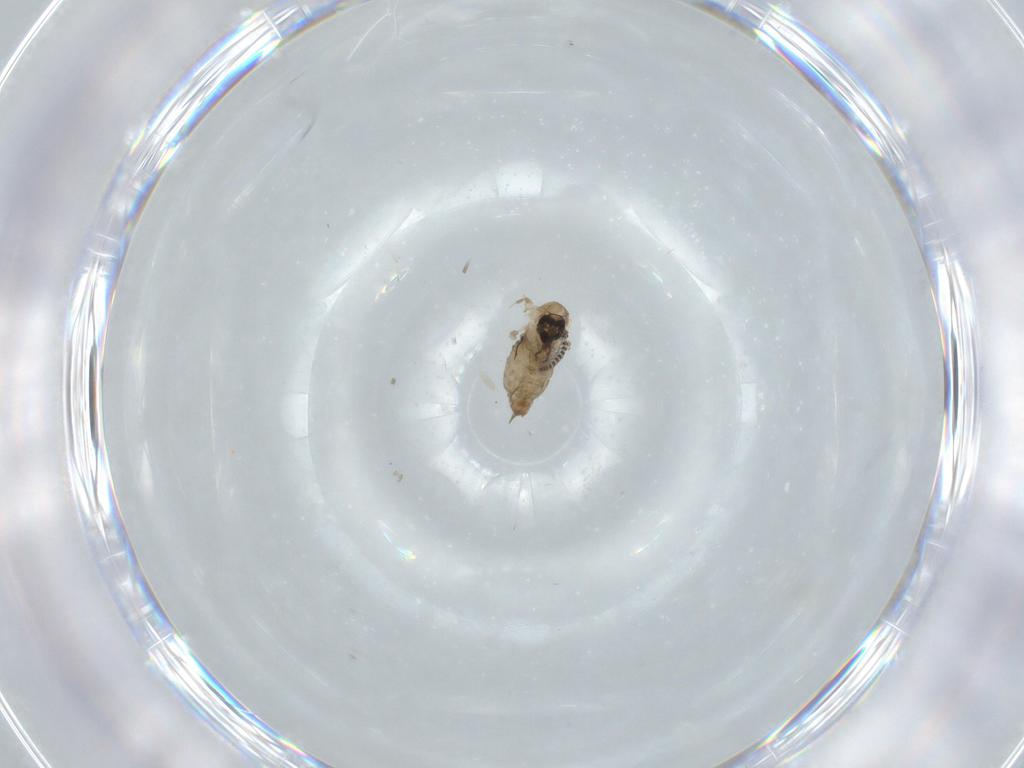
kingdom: Animalia
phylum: Arthropoda
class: Insecta
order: Diptera
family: Psychodidae
